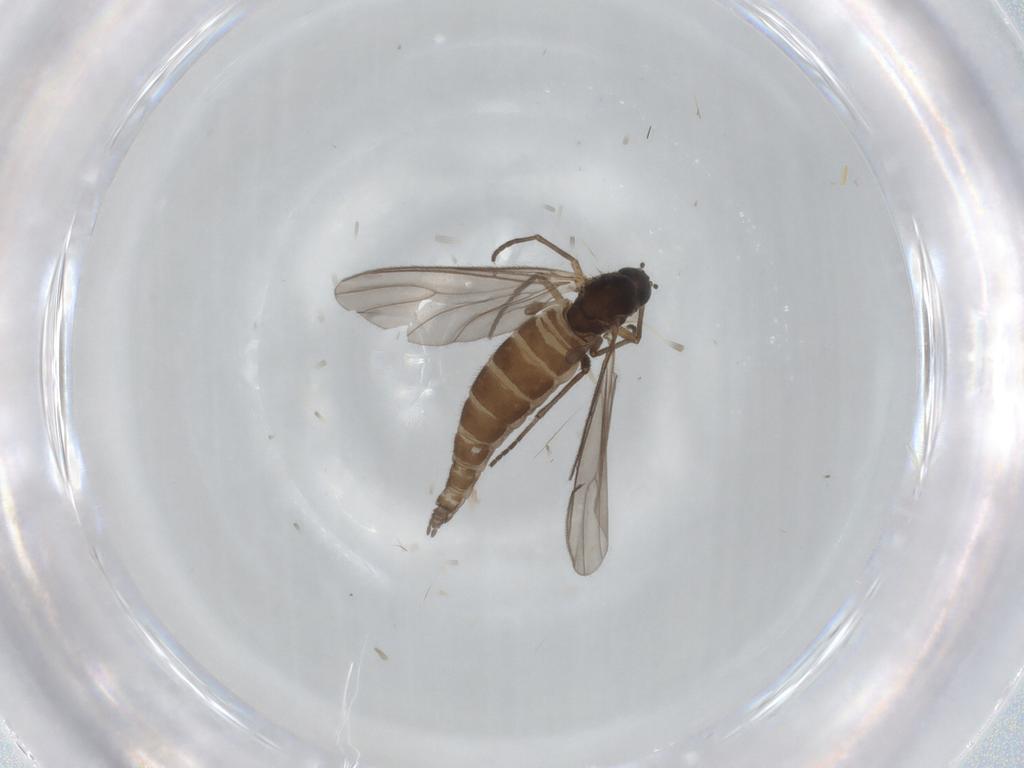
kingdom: Animalia
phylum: Arthropoda
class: Insecta
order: Diptera
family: Sciaridae
